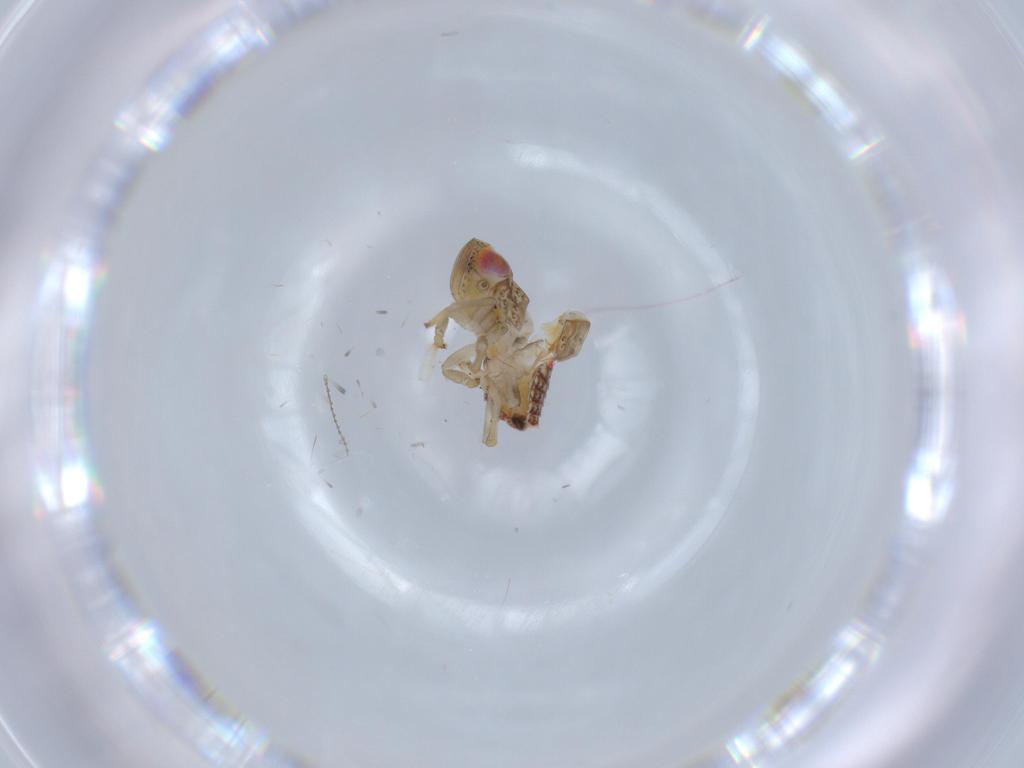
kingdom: Animalia
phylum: Arthropoda
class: Insecta
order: Hemiptera
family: Issidae
